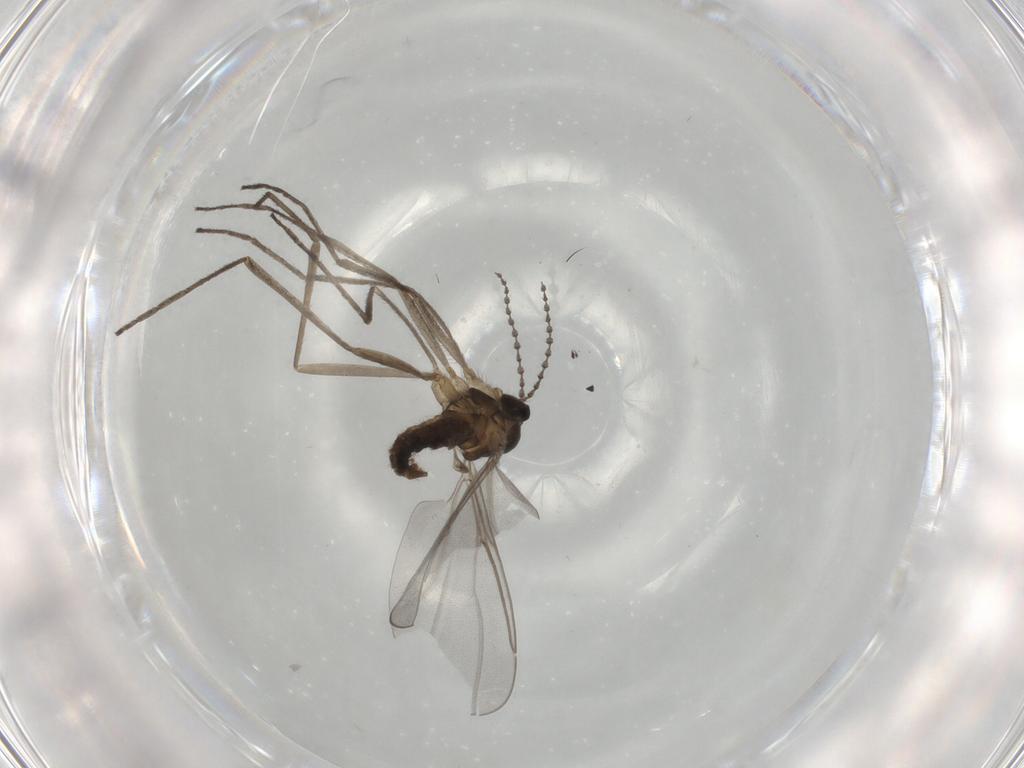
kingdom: Animalia
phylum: Arthropoda
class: Insecta
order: Diptera
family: Cecidomyiidae
